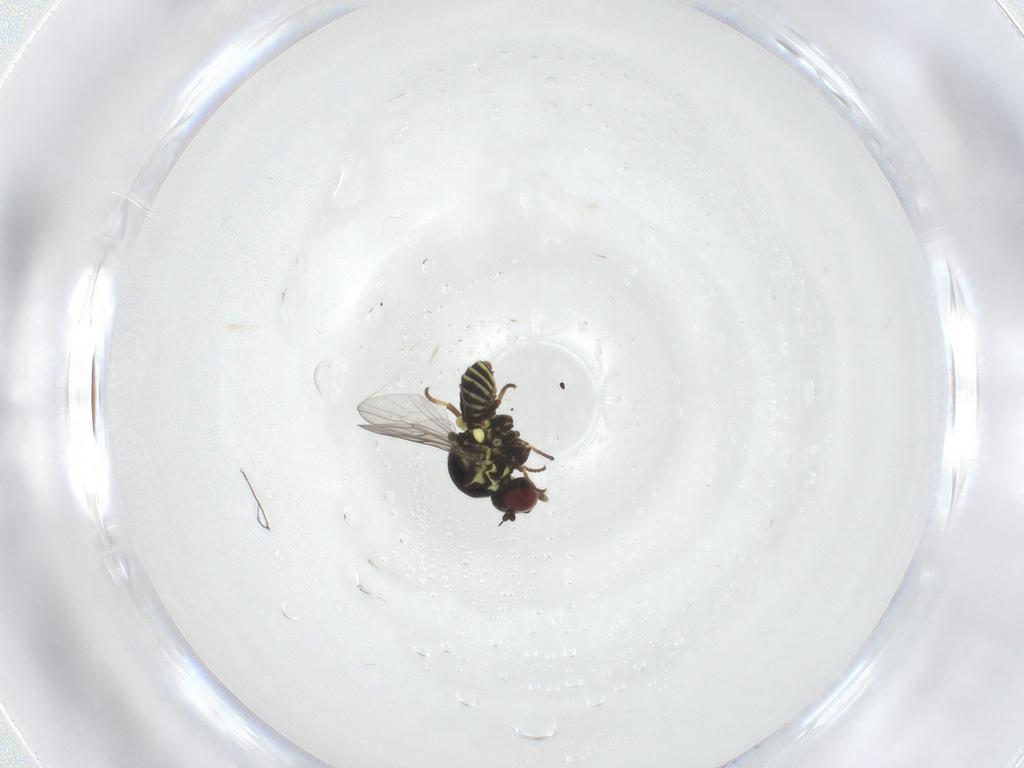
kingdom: Animalia
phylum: Arthropoda
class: Insecta
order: Diptera
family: Mythicomyiidae
